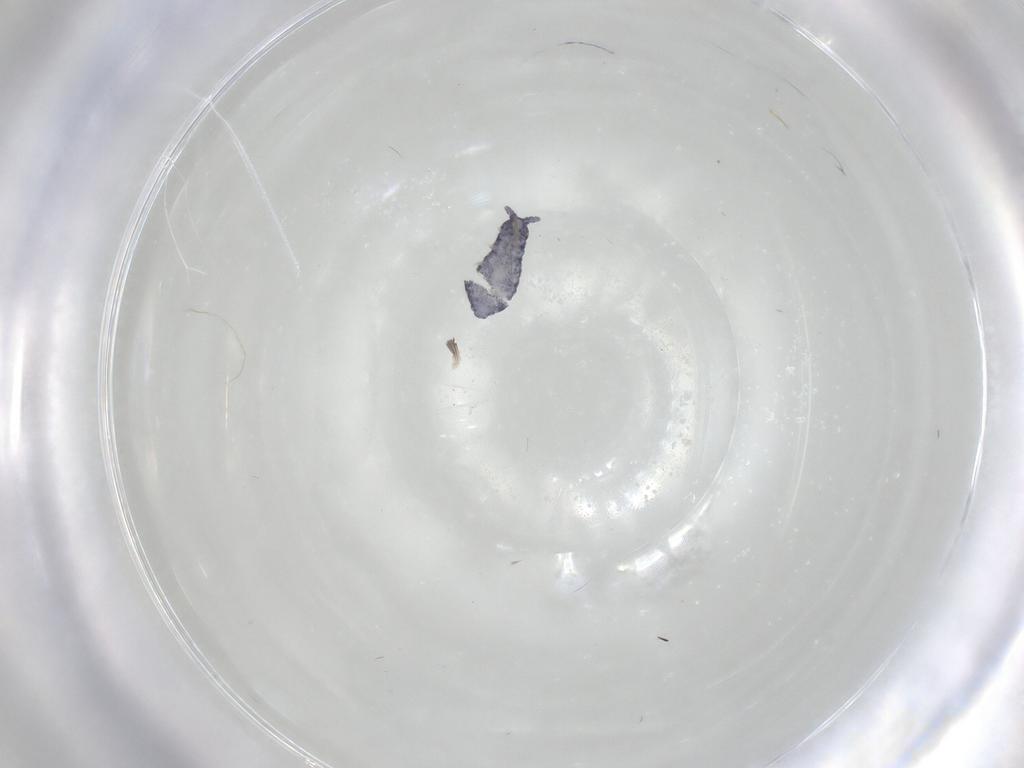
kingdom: Animalia
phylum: Arthropoda
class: Collembola
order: Poduromorpha
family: Brachystomellidae
